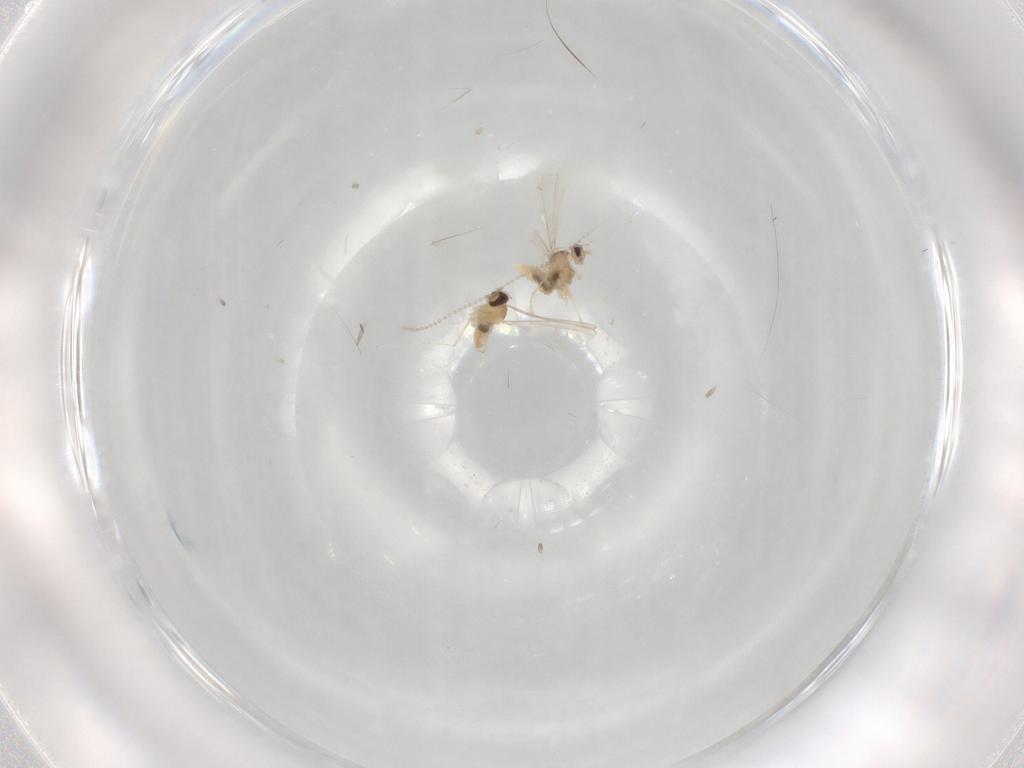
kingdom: Animalia
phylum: Arthropoda
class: Insecta
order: Diptera
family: Cecidomyiidae
